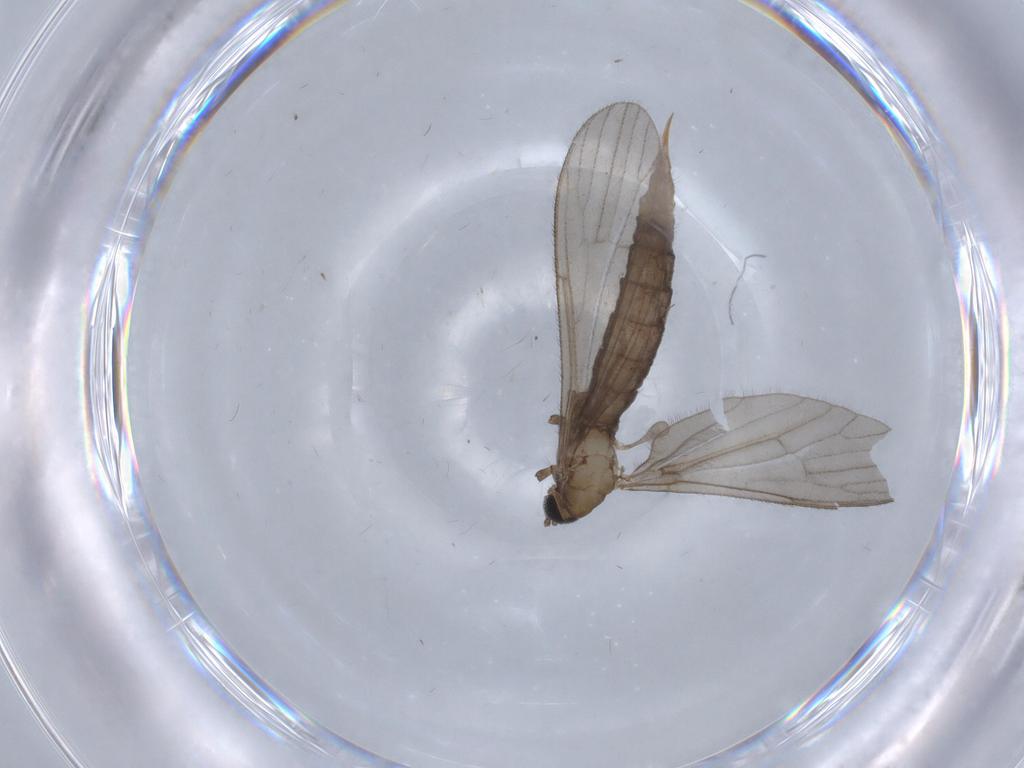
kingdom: Animalia
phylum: Arthropoda
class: Insecta
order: Diptera
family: Limoniidae
